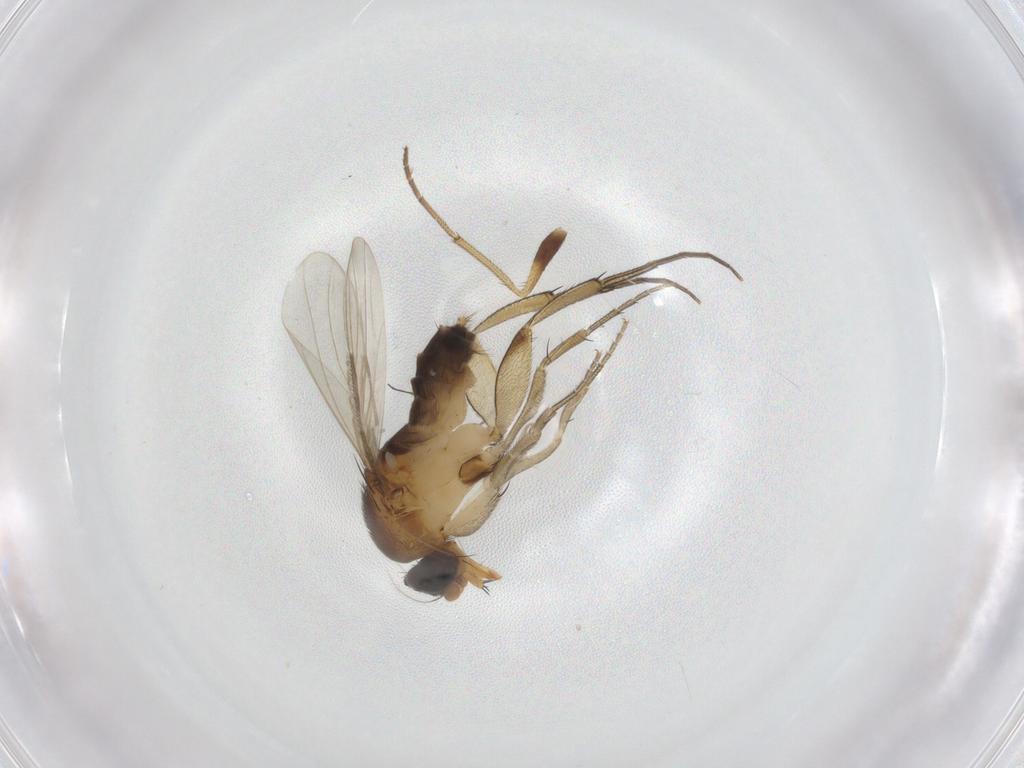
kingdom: Animalia
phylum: Arthropoda
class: Insecta
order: Diptera
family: Phoridae
